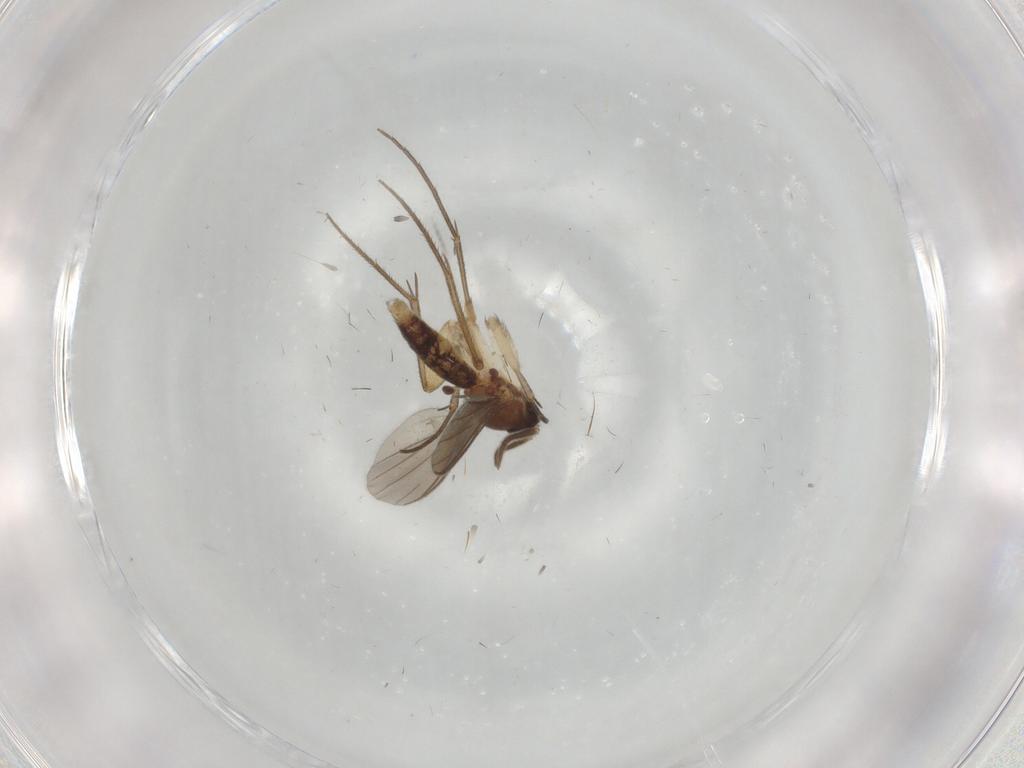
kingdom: Animalia
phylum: Arthropoda
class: Insecta
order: Diptera
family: Mycetophilidae
